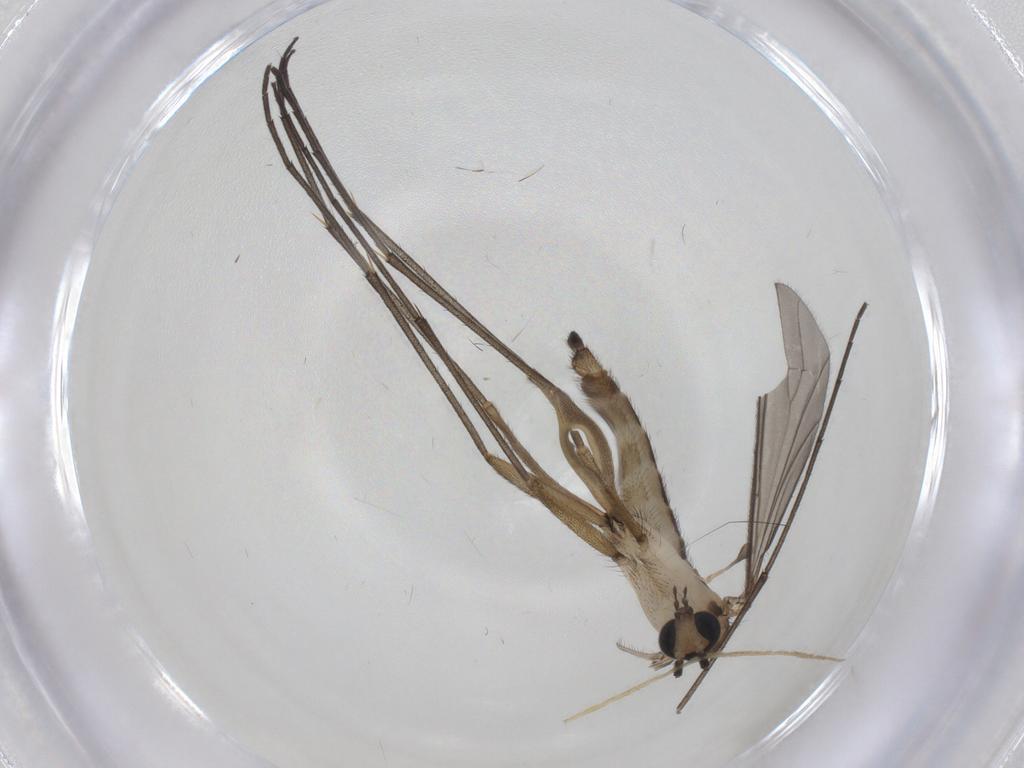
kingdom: Animalia
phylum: Arthropoda
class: Insecta
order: Diptera
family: Sciaridae
